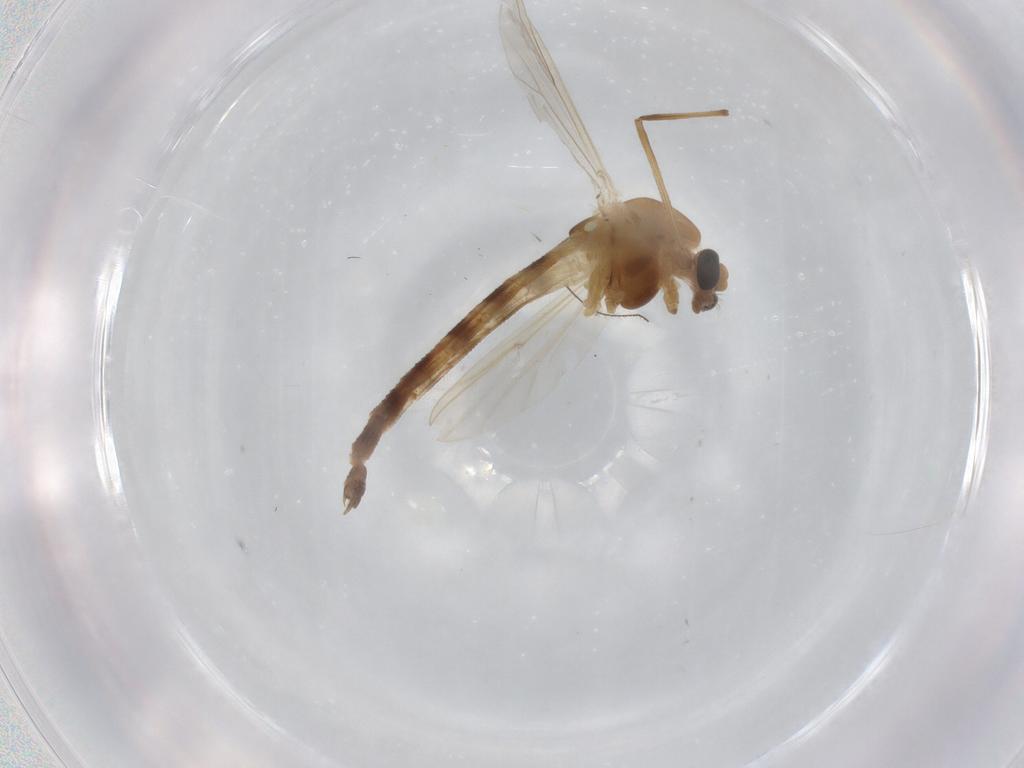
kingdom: Animalia
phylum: Arthropoda
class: Insecta
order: Diptera
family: Chironomidae
